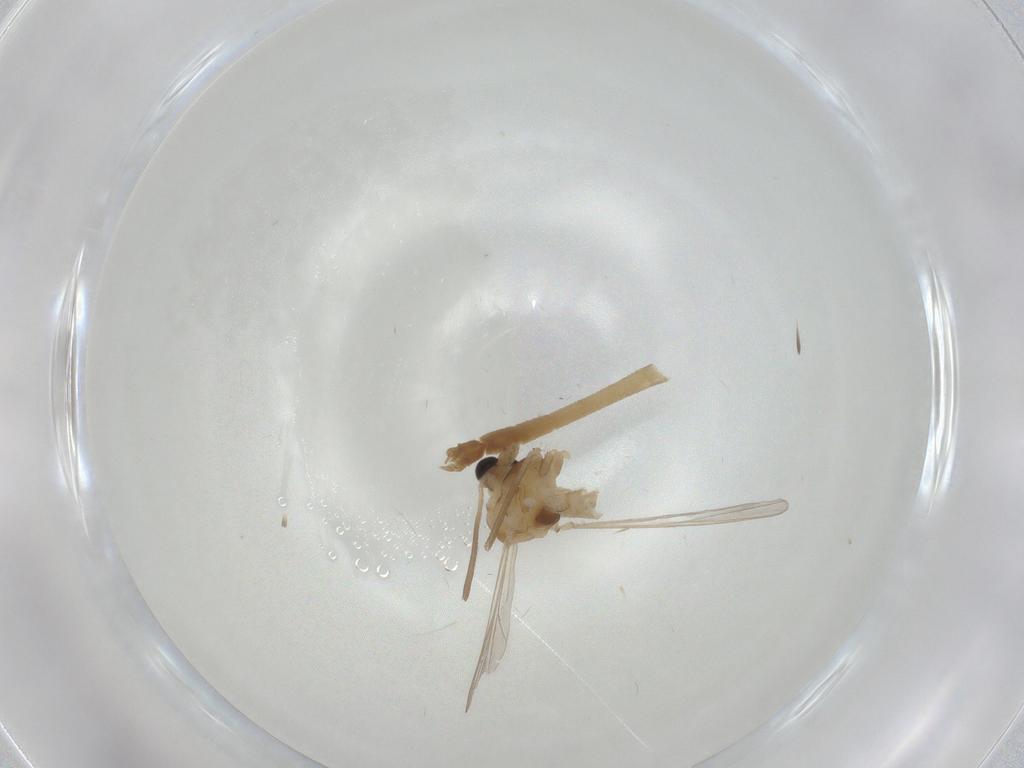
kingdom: Animalia
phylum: Arthropoda
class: Insecta
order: Diptera
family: Chironomidae
